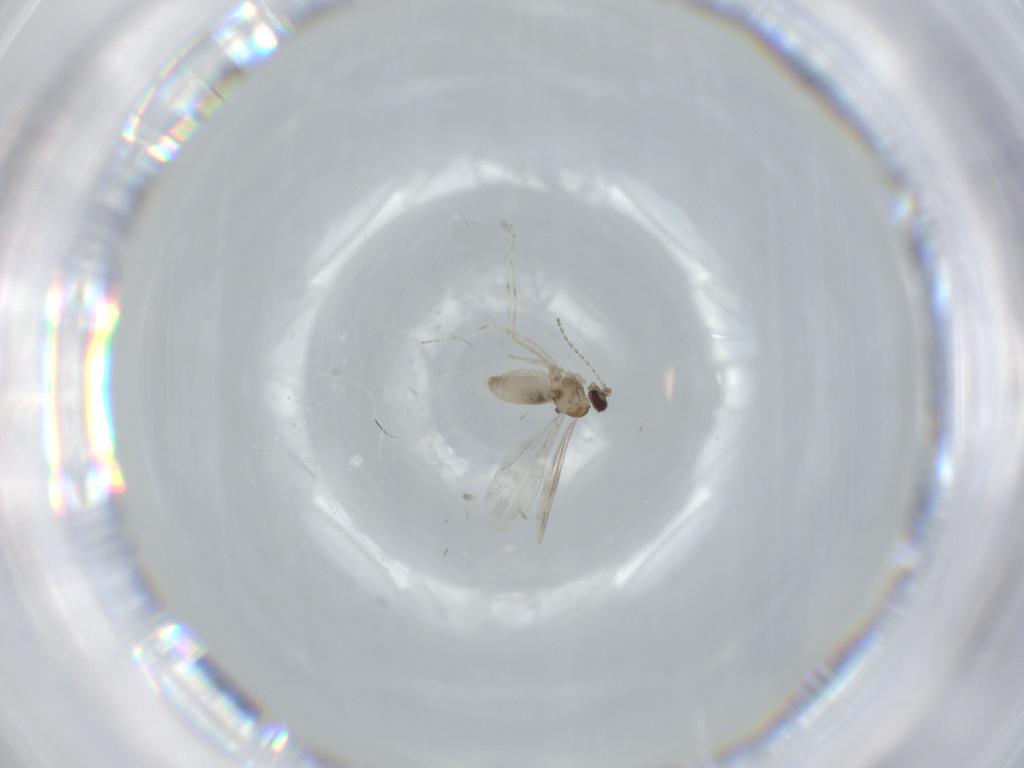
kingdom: Animalia
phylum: Arthropoda
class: Insecta
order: Diptera
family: Cecidomyiidae
